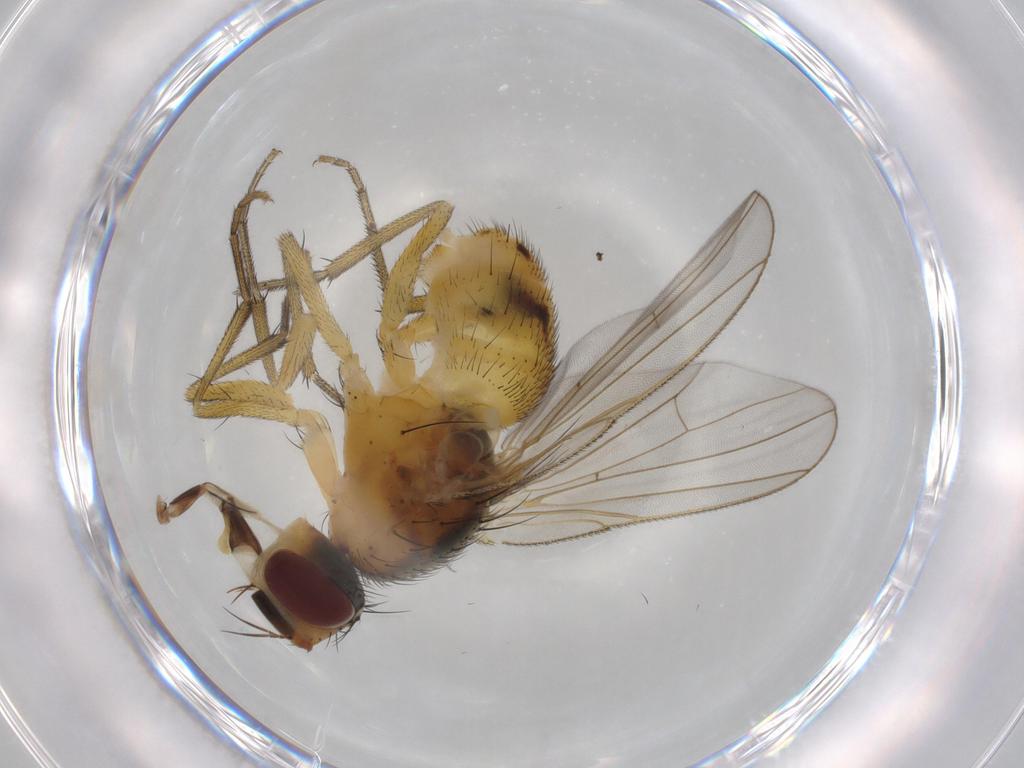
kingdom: Animalia
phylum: Arthropoda
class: Insecta
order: Diptera
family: Muscidae
